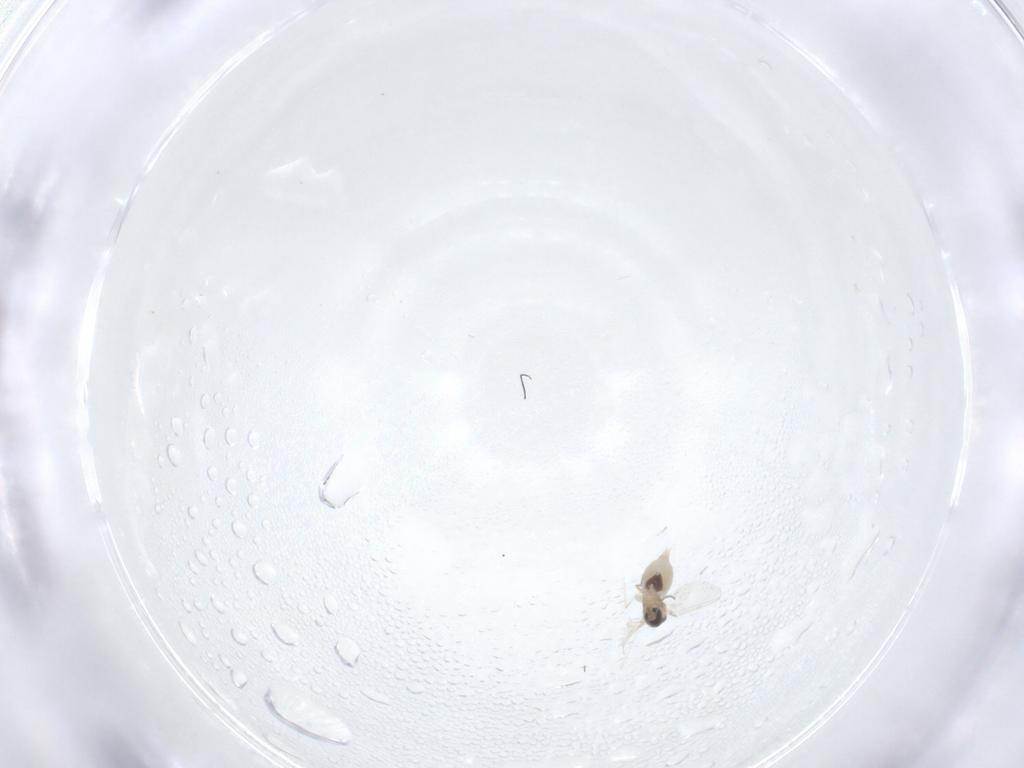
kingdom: Animalia
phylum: Arthropoda
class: Insecta
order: Diptera
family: Cecidomyiidae
